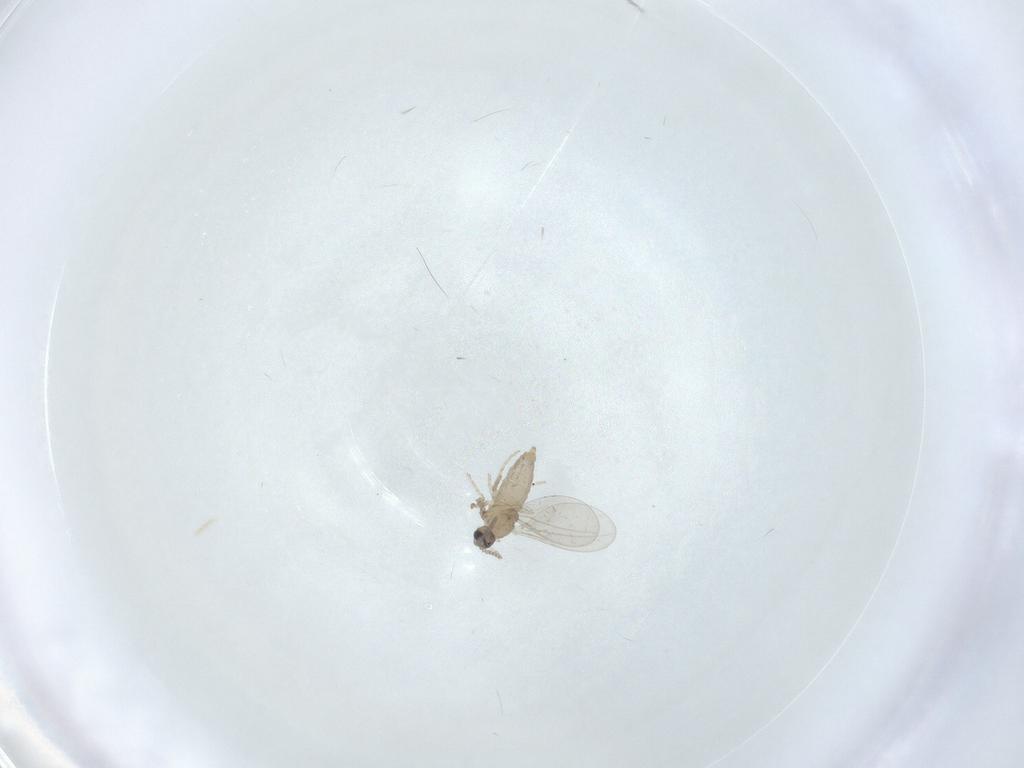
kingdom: Animalia
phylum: Arthropoda
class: Insecta
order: Diptera
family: Cecidomyiidae
